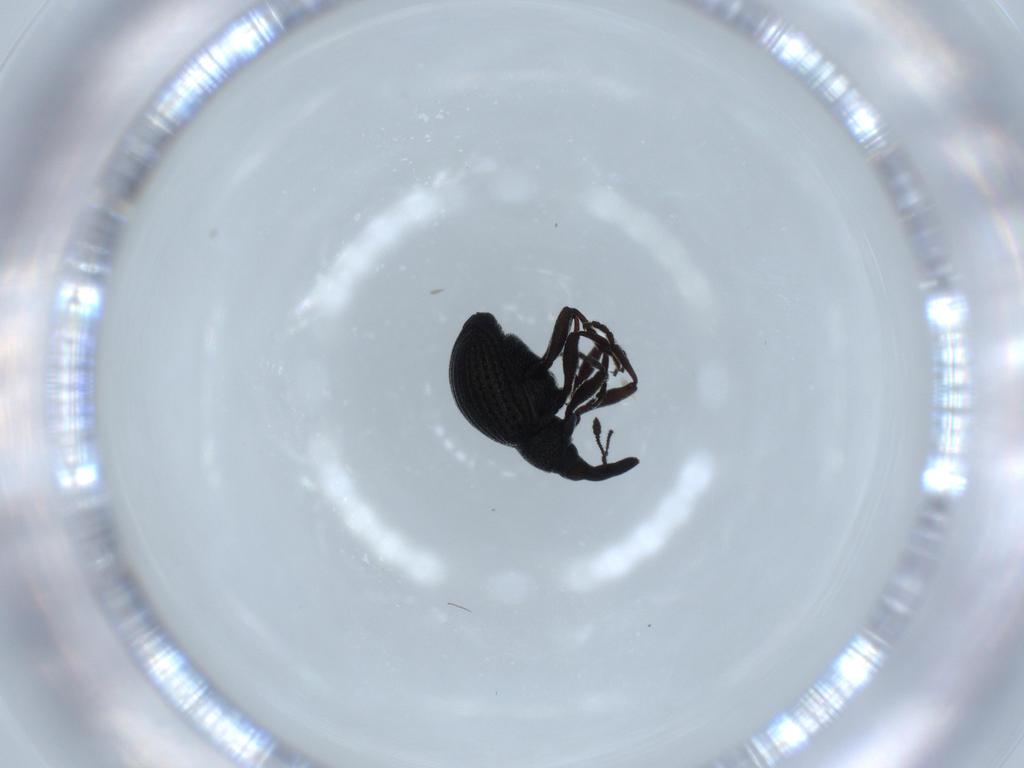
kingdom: Animalia
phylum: Arthropoda
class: Insecta
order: Coleoptera
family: Brentidae
